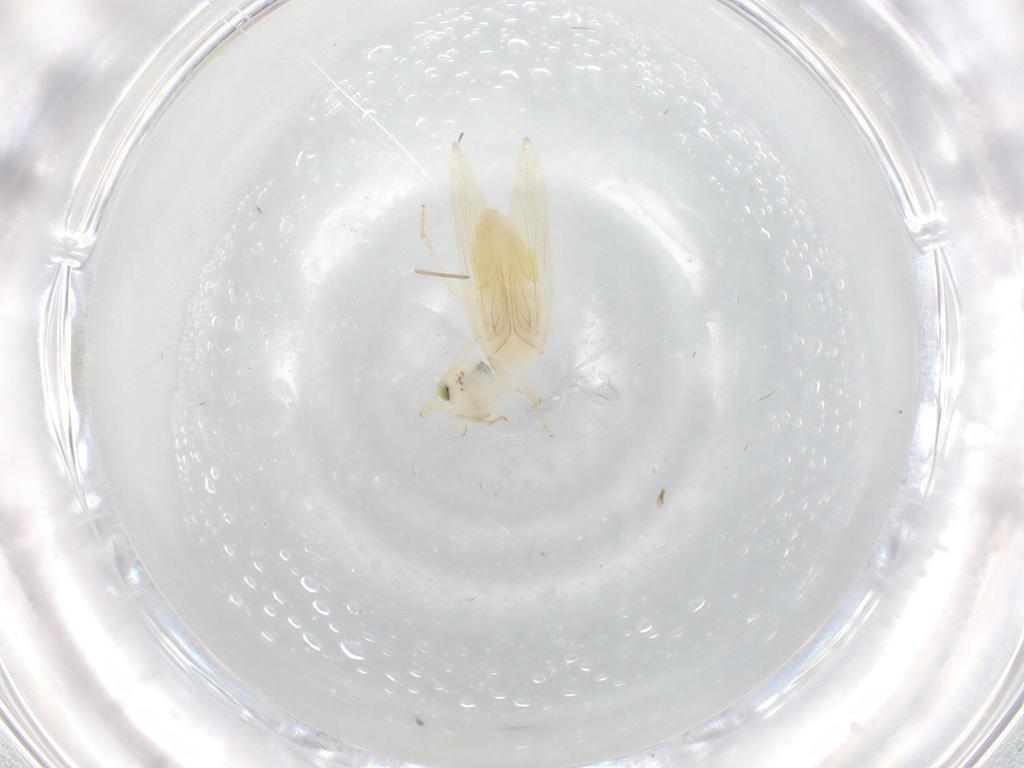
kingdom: Animalia
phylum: Arthropoda
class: Insecta
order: Psocodea
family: Lepidopsocidae
